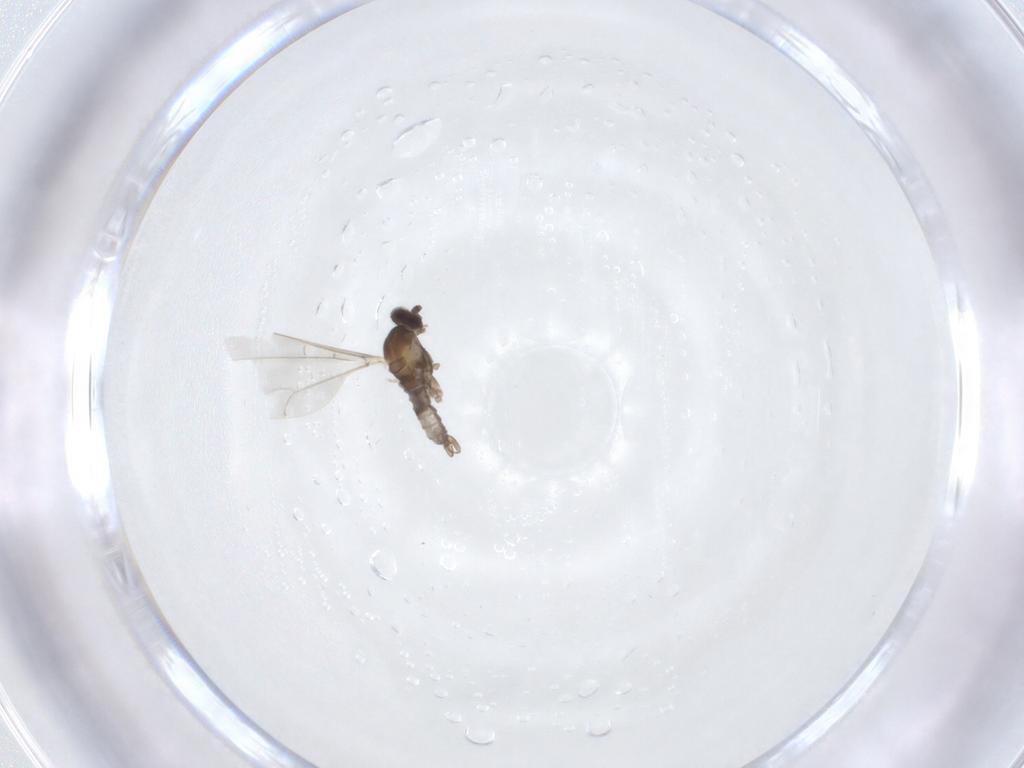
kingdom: Animalia
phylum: Arthropoda
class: Insecta
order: Diptera
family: Cecidomyiidae
